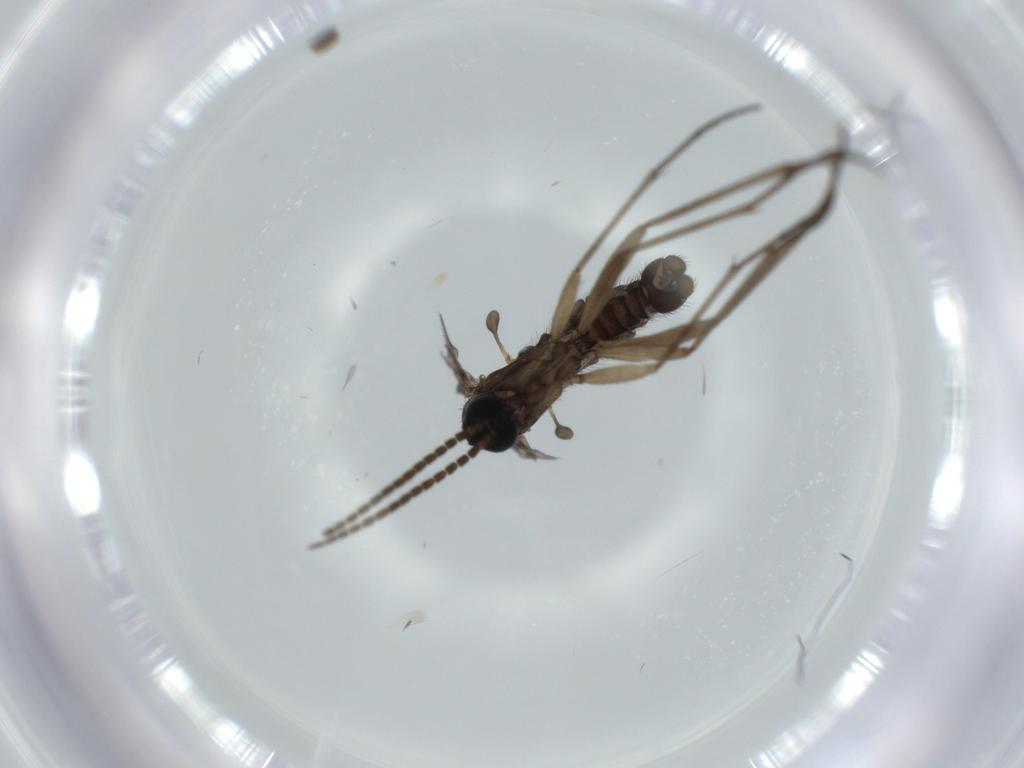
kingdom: Animalia
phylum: Arthropoda
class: Insecta
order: Diptera
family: Sciaridae
